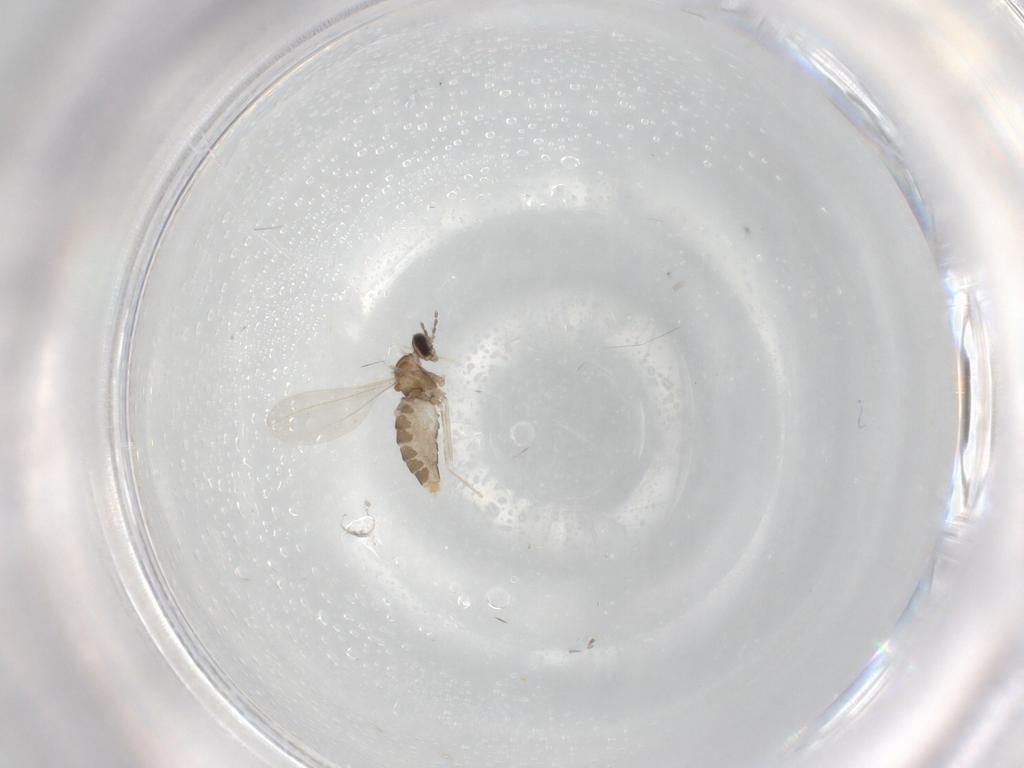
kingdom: Animalia
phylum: Arthropoda
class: Insecta
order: Diptera
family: Cecidomyiidae
